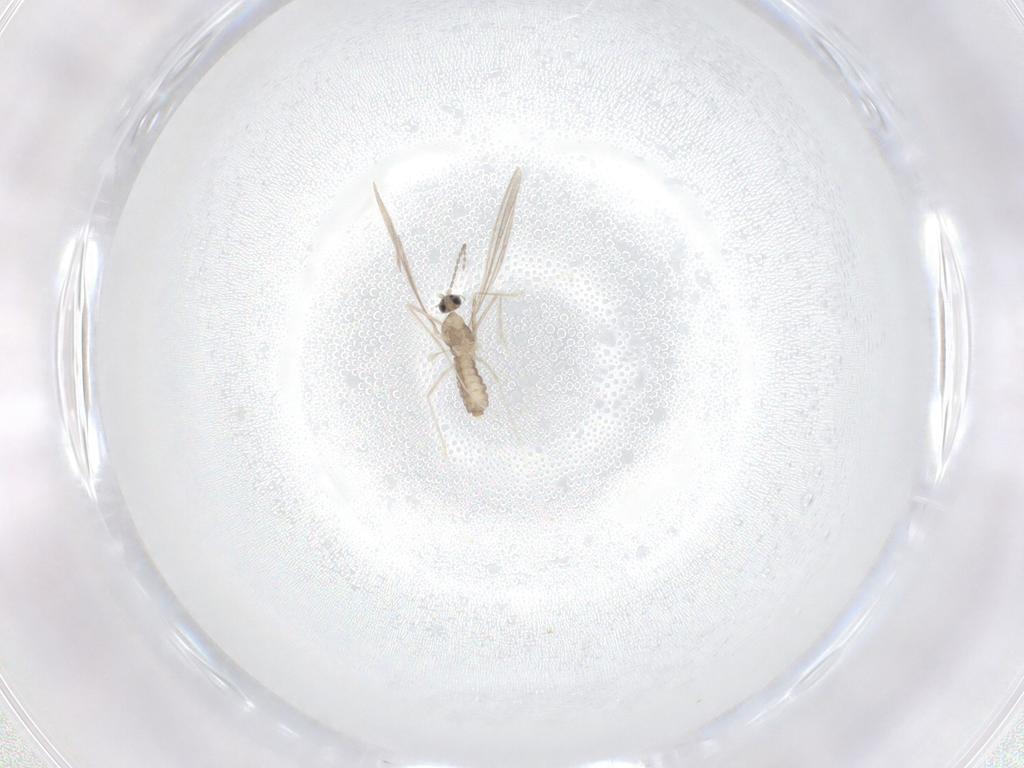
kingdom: Animalia
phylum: Arthropoda
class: Insecta
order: Diptera
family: Cecidomyiidae
